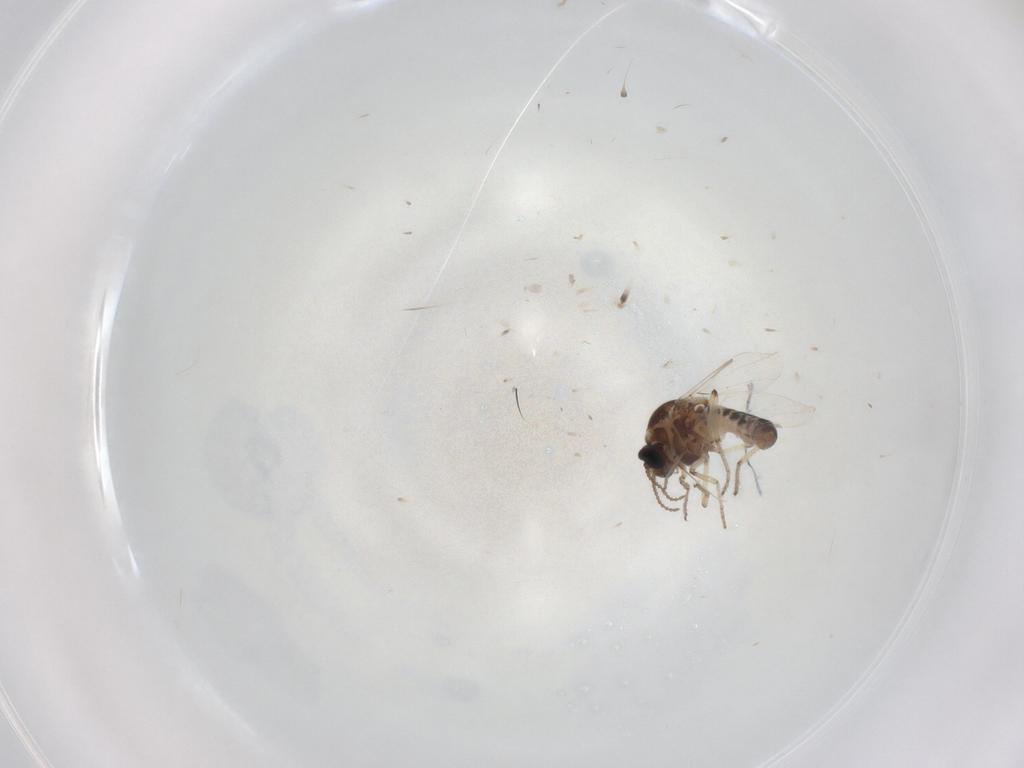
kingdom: Animalia
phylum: Arthropoda
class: Insecta
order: Diptera
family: Ceratopogonidae
